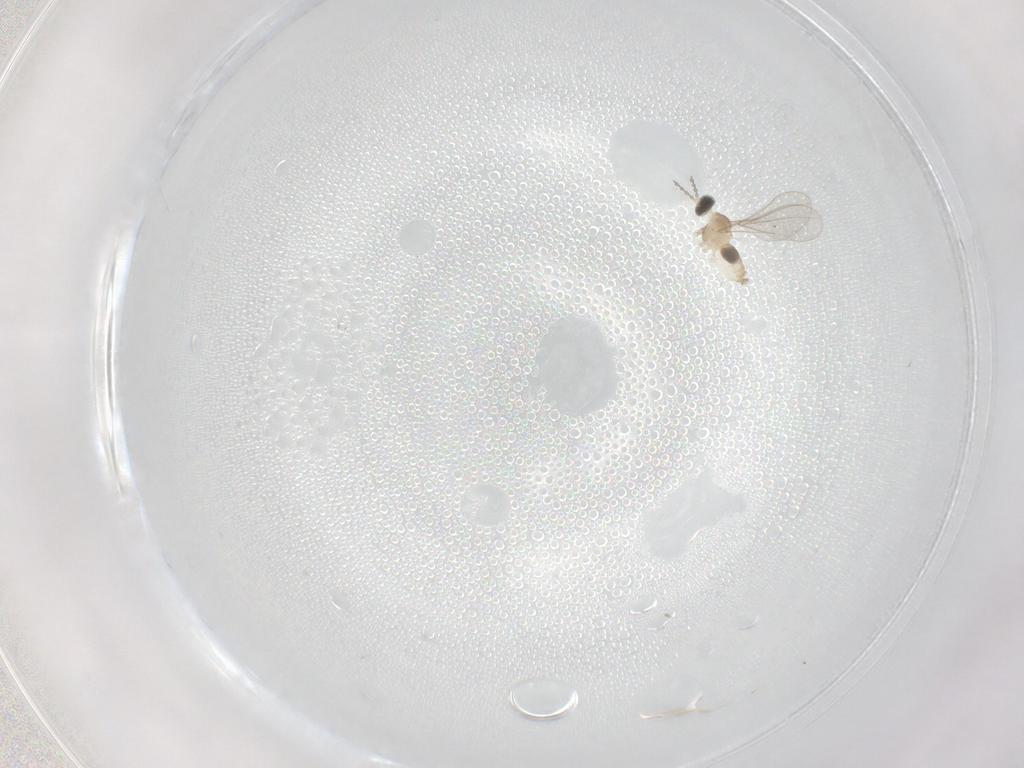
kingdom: Animalia
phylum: Arthropoda
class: Insecta
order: Diptera
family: Cecidomyiidae
